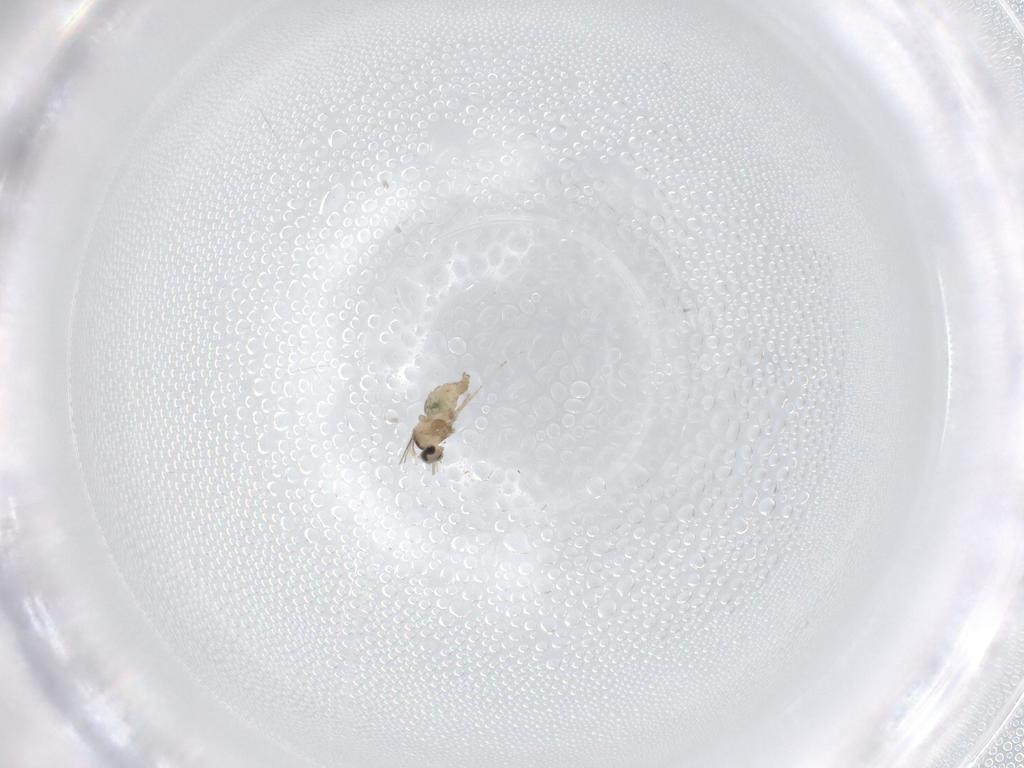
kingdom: Animalia
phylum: Arthropoda
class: Insecta
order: Diptera
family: Cecidomyiidae
